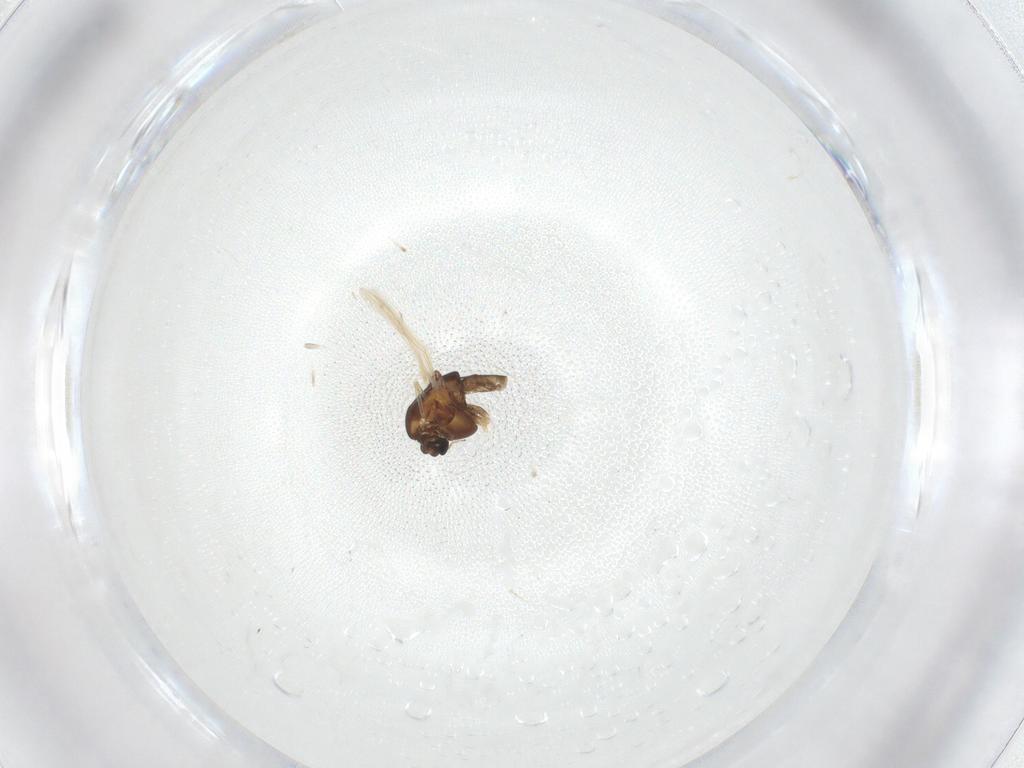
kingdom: Animalia
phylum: Arthropoda
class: Insecta
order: Diptera
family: Chironomidae
